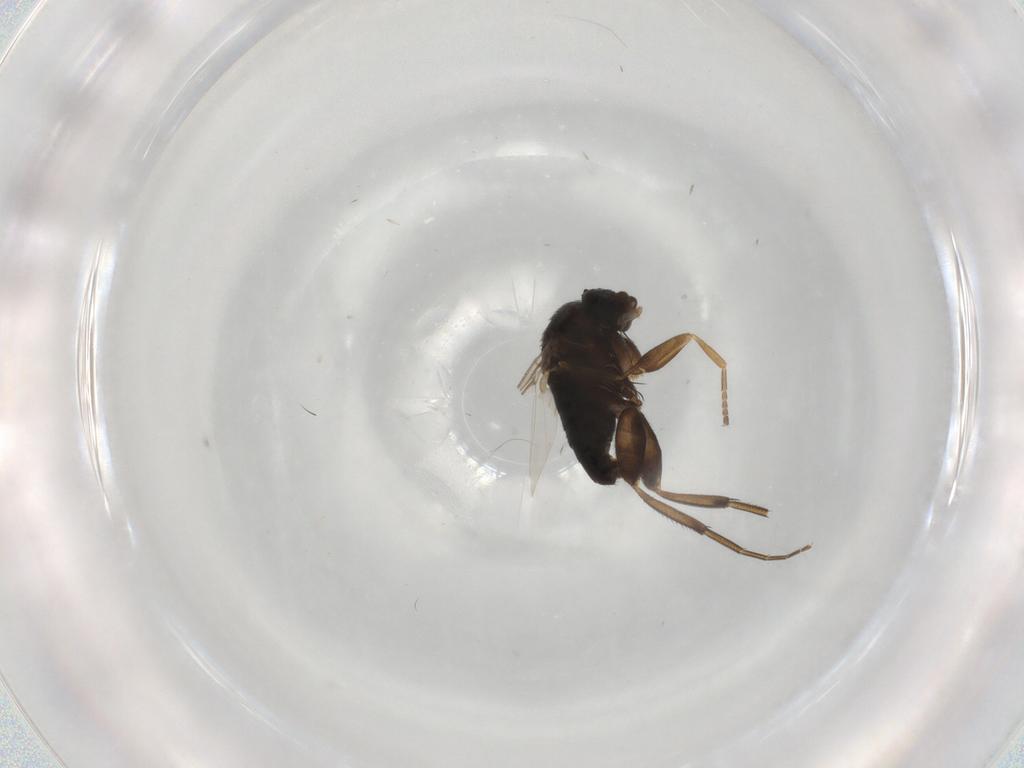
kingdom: Animalia
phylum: Arthropoda
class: Insecta
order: Diptera
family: Phoridae
